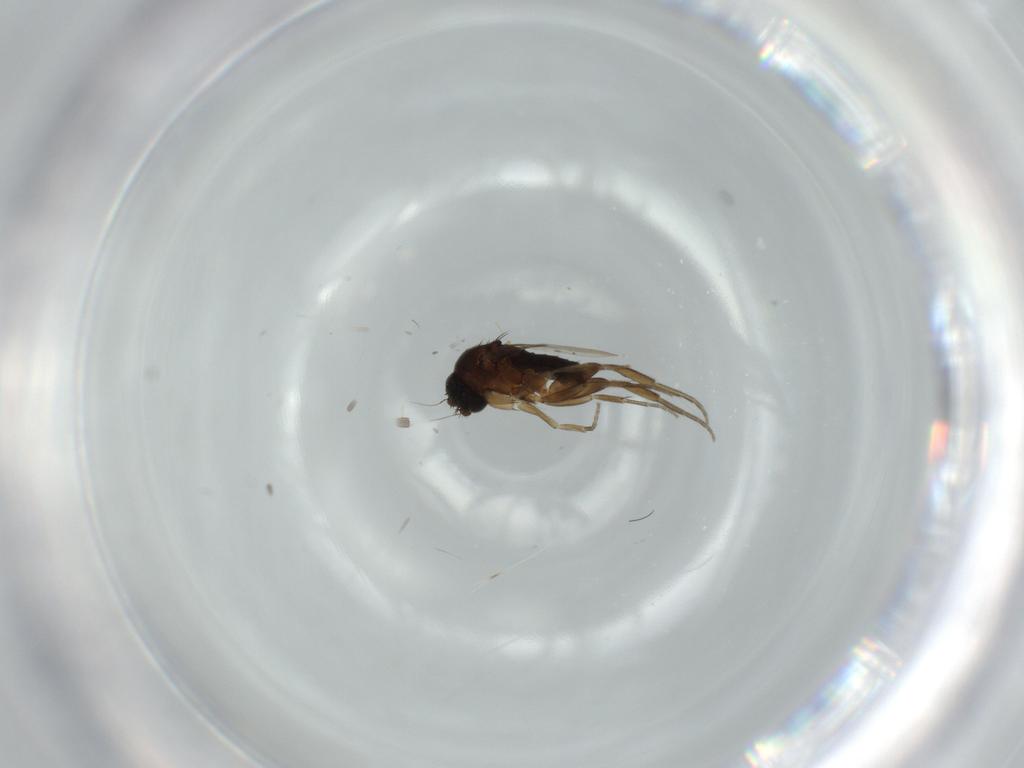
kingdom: Animalia
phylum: Arthropoda
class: Insecta
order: Diptera
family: Phoridae
